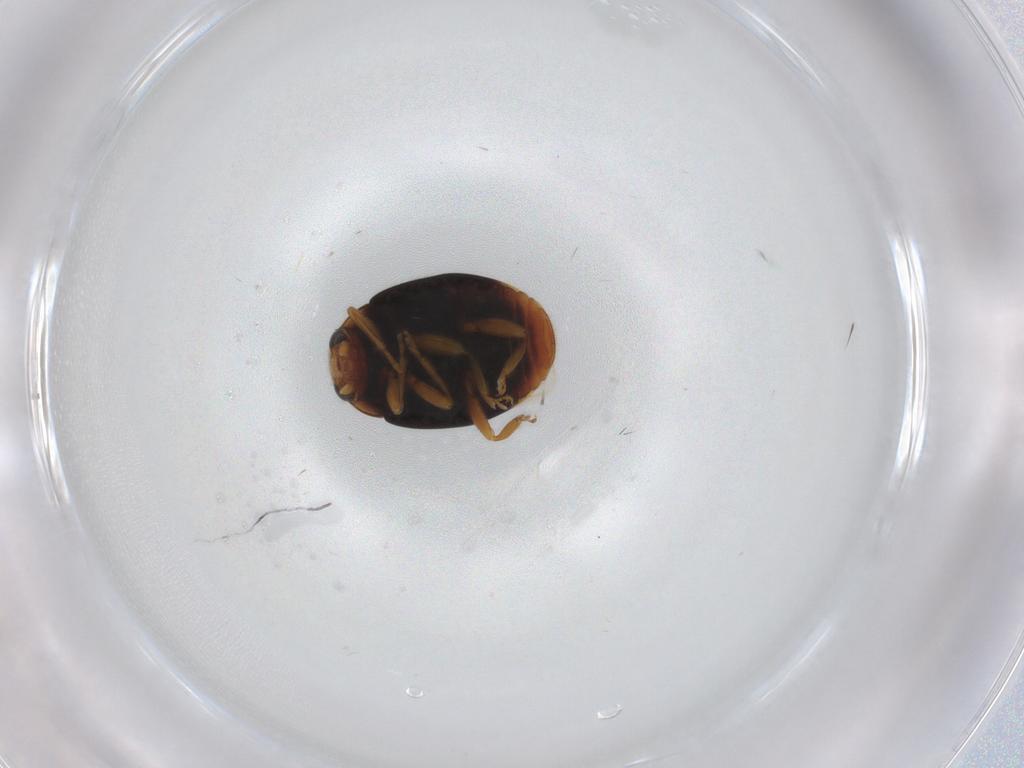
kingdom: Animalia
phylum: Arthropoda
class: Insecta
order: Coleoptera
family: Coccinellidae
